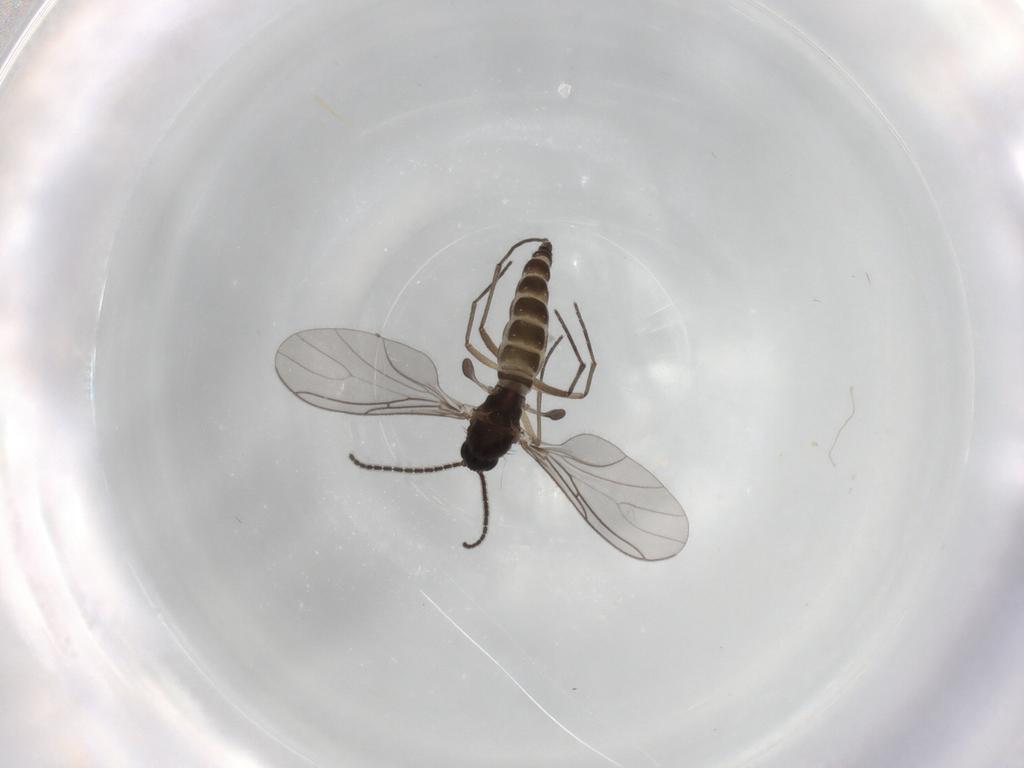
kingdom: Animalia
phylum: Arthropoda
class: Insecta
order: Diptera
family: Sciaridae
